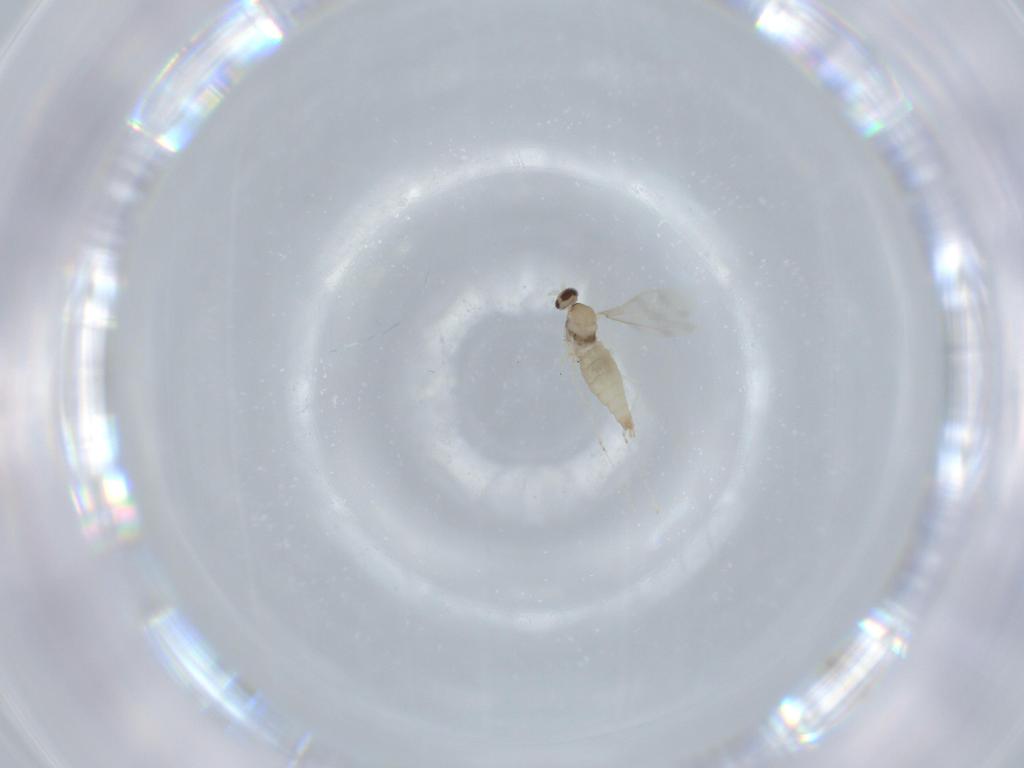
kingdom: Animalia
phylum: Arthropoda
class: Insecta
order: Diptera
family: Cecidomyiidae
